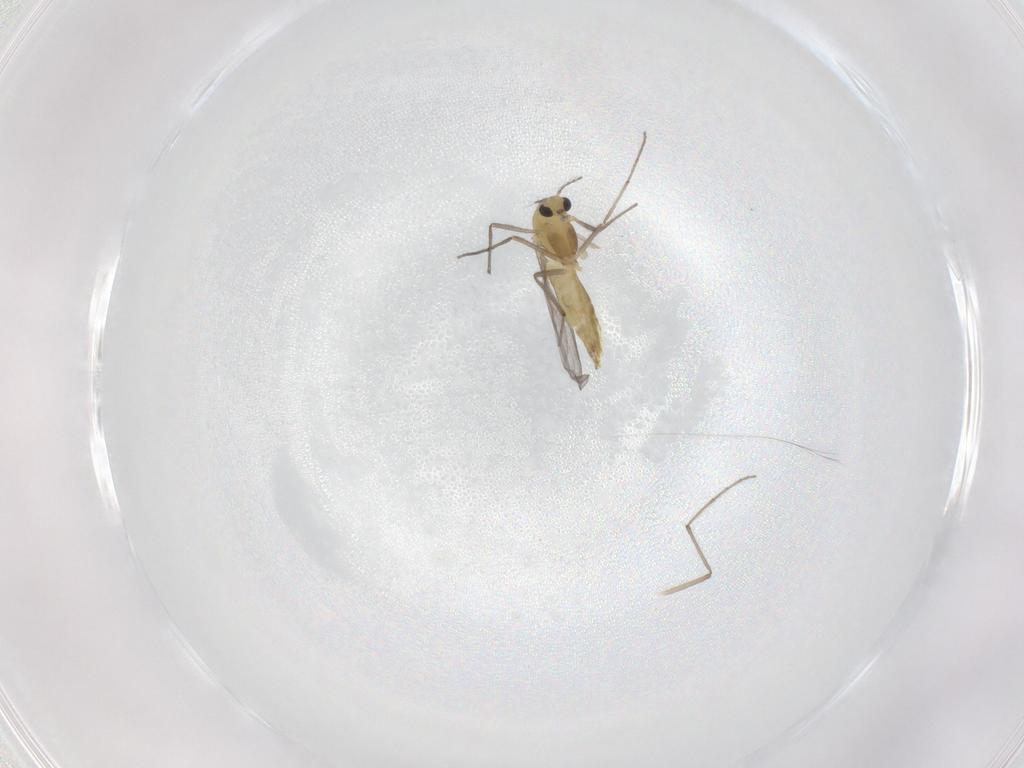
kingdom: Animalia
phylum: Arthropoda
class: Insecta
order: Diptera
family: Chironomidae
